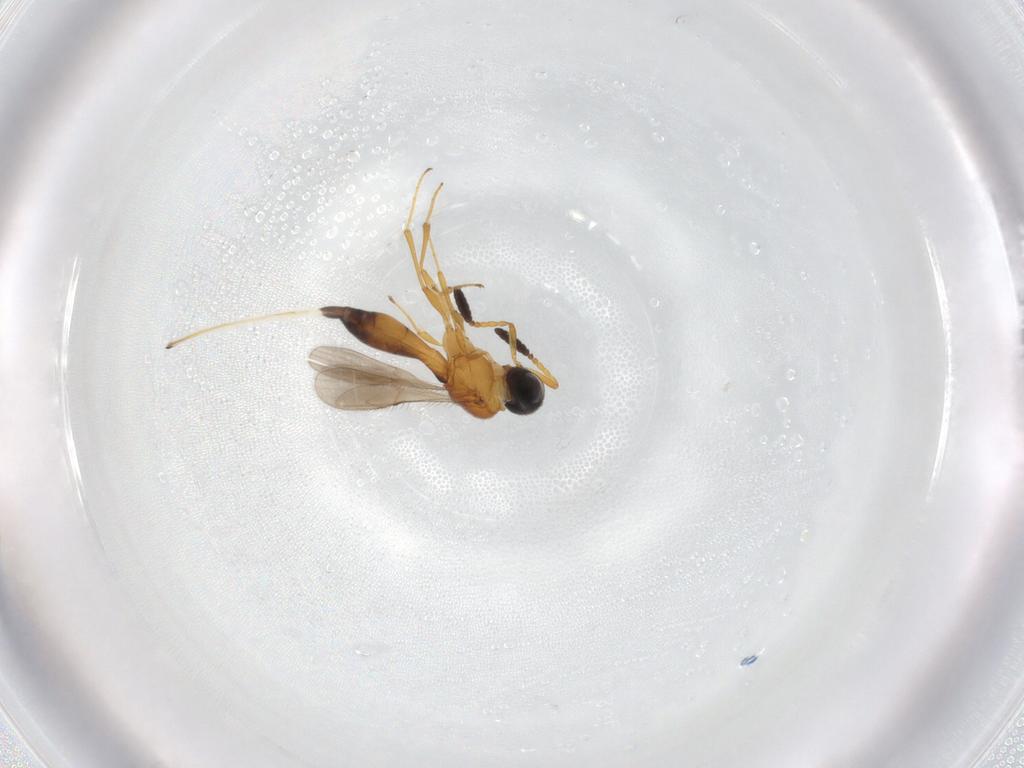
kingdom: Animalia
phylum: Arthropoda
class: Insecta
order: Hymenoptera
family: Scelionidae
